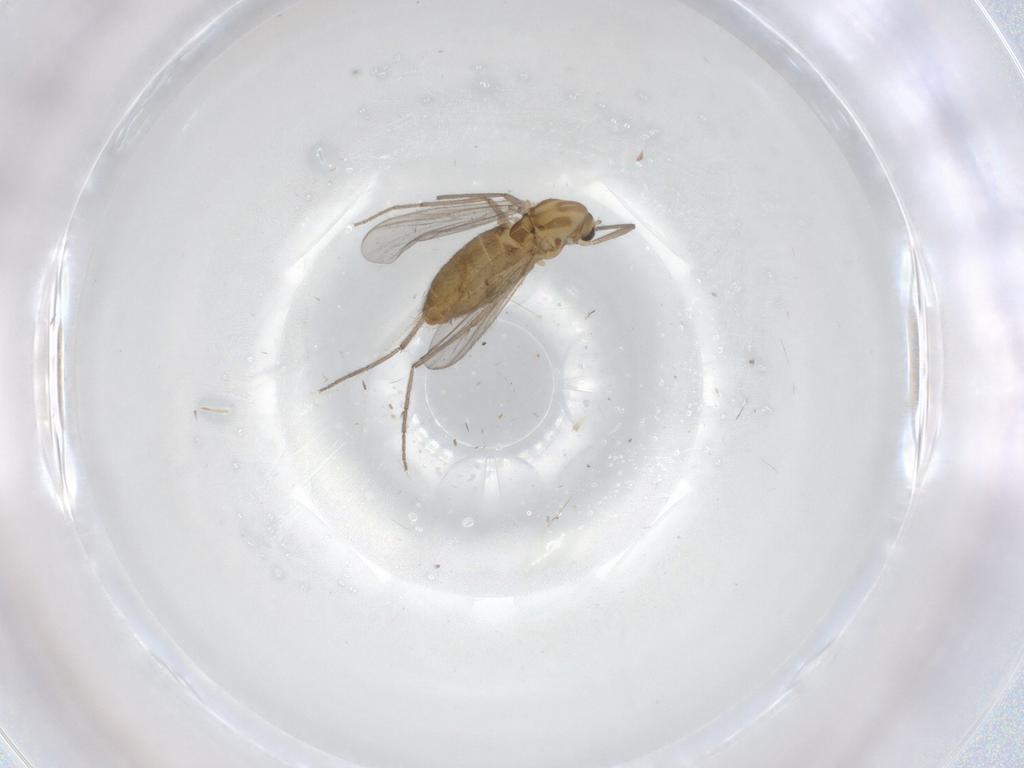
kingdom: Animalia
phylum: Arthropoda
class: Insecta
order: Diptera
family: Chironomidae
